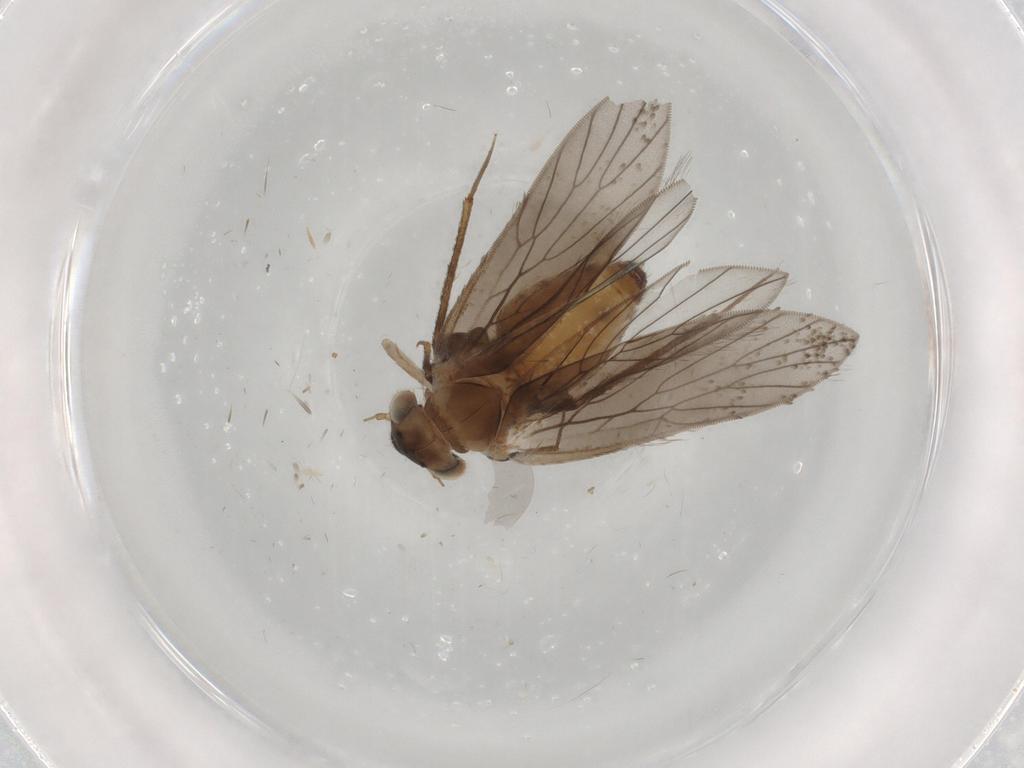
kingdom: Animalia
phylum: Arthropoda
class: Insecta
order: Psocodea
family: Lepidopsocidae
